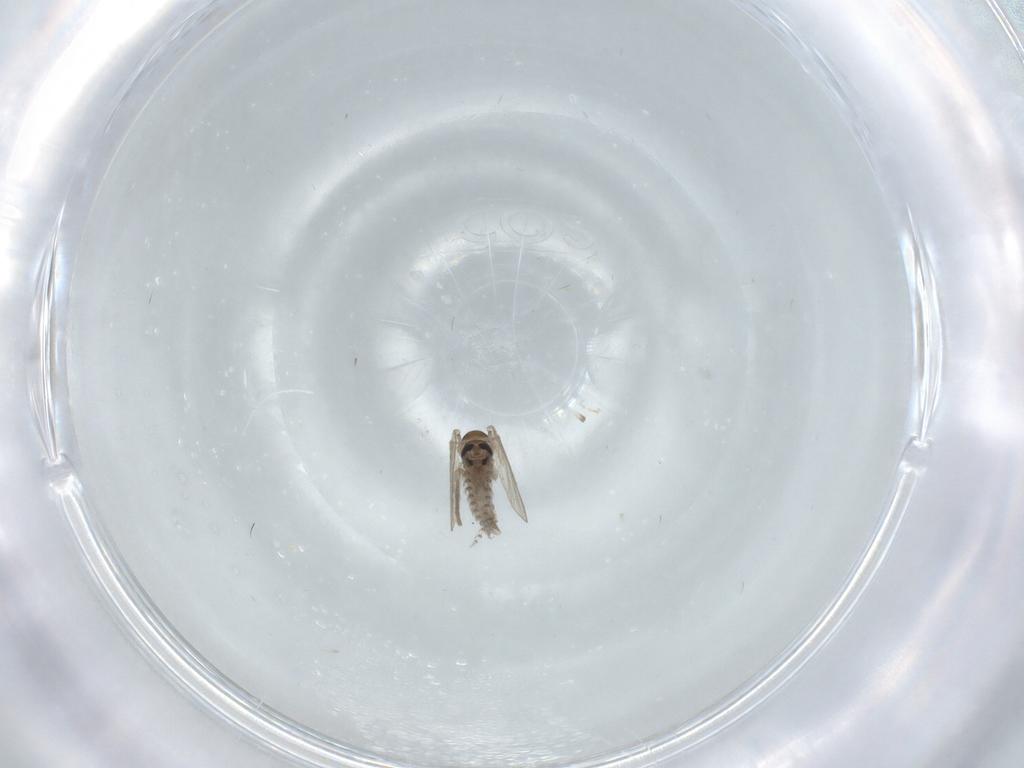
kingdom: Animalia
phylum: Arthropoda
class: Insecta
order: Diptera
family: Psychodidae
